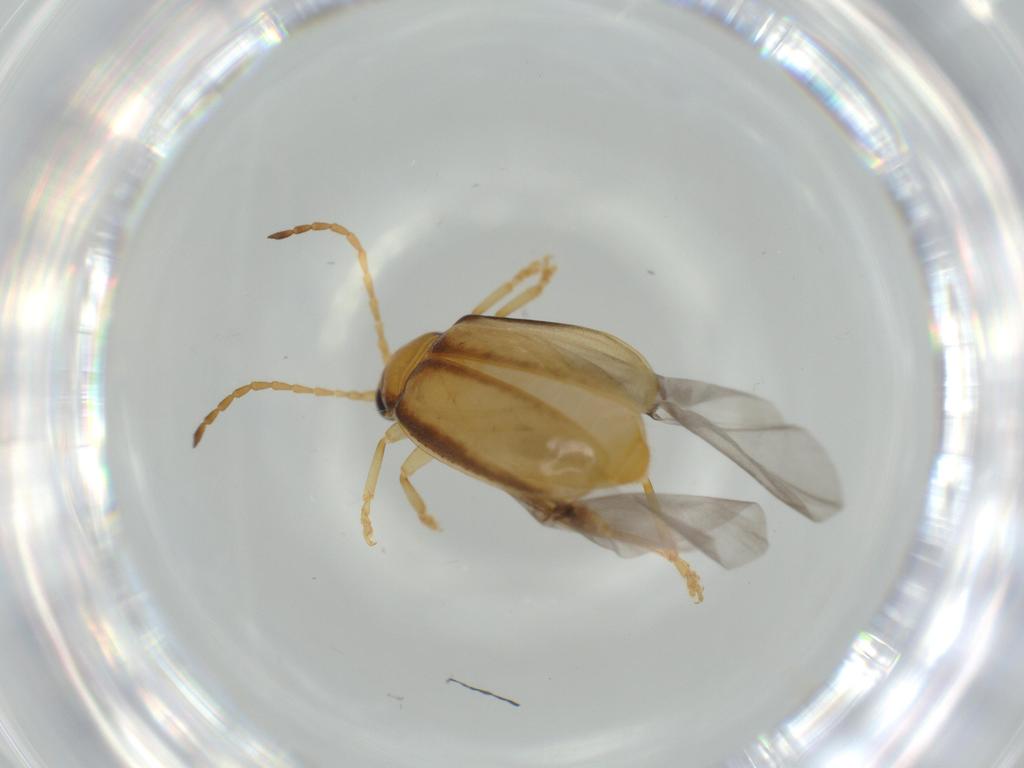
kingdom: Animalia
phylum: Arthropoda
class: Insecta
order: Coleoptera
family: Chrysomelidae
